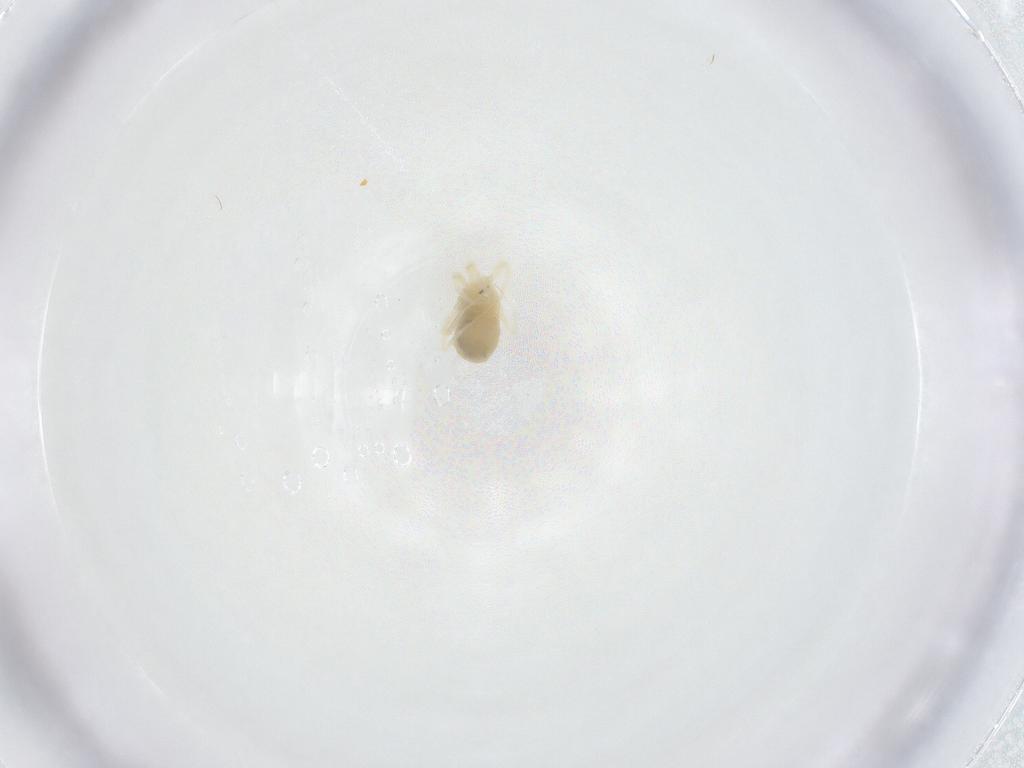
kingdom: Animalia
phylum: Arthropoda
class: Arachnida
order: Trombidiformes
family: Anystidae
